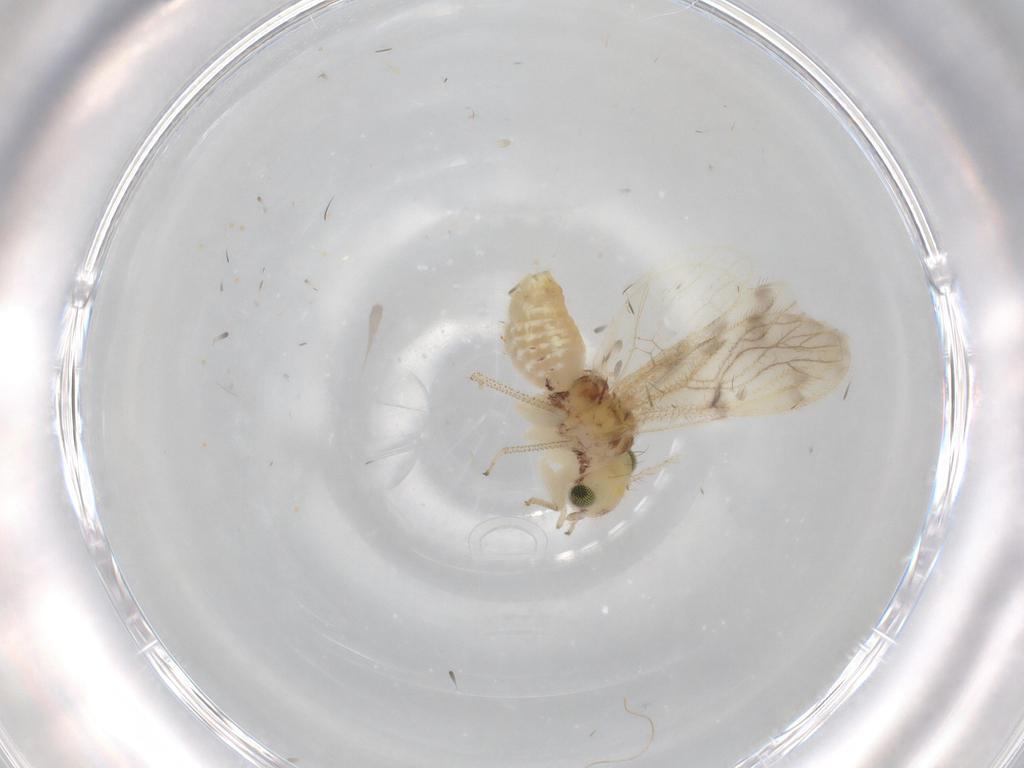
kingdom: Animalia
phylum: Arthropoda
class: Insecta
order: Psocodea
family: Pseudocaeciliidae
